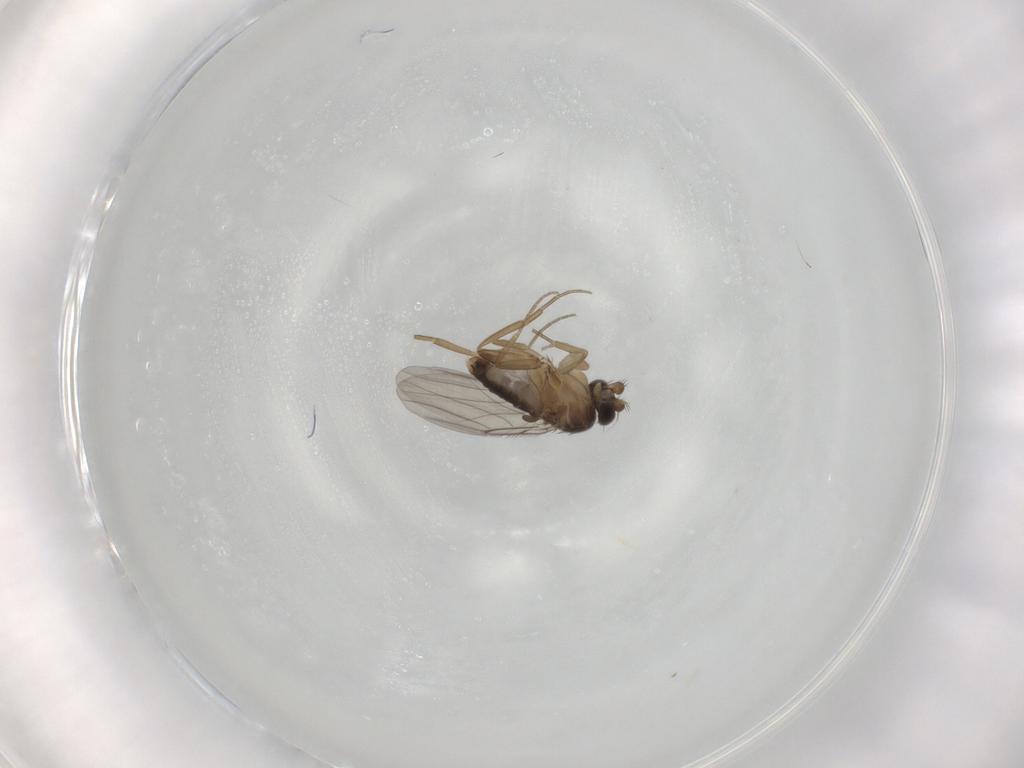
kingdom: Animalia
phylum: Arthropoda
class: Insecta
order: Diptera
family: Phoridae
